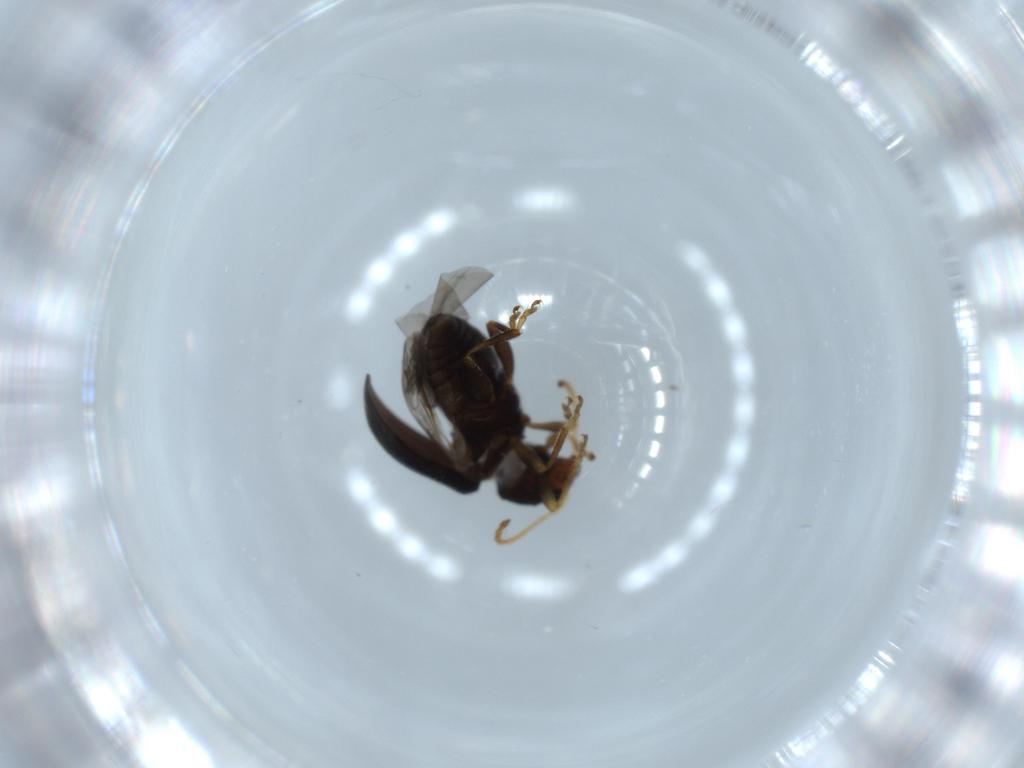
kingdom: Animalia
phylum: Arthropoda
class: Insecta
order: Coleoptera
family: Chrysomelidae
